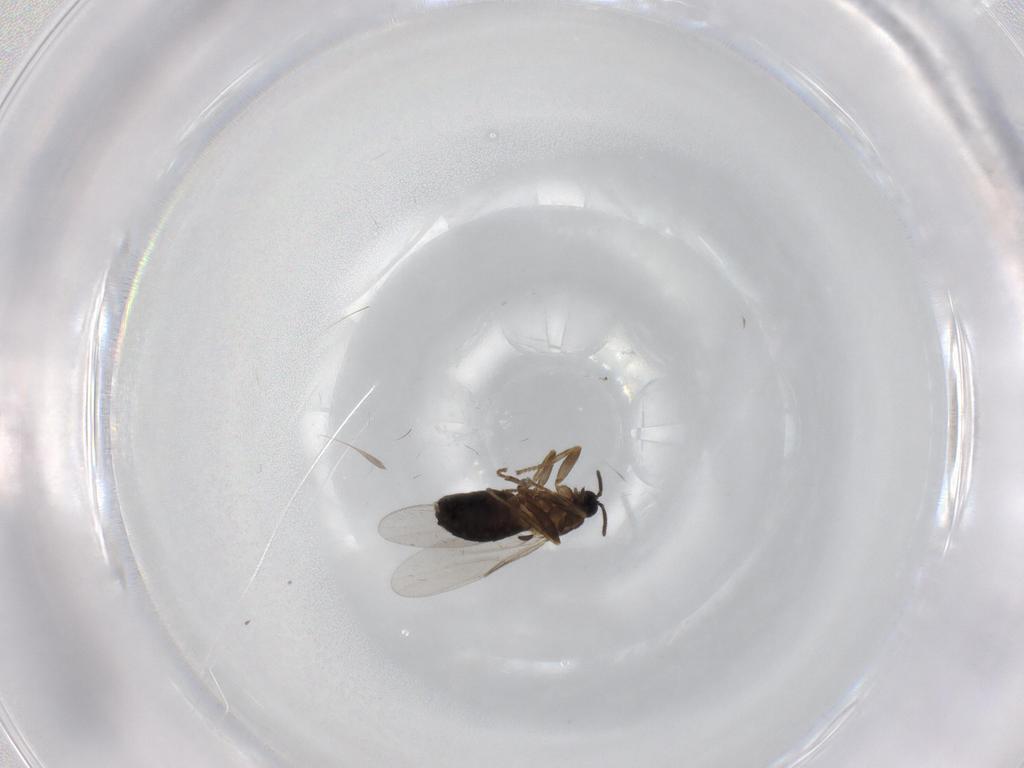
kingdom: Animalia
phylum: Arthropoda
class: Insecta
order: Diptera
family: Scatopsidae
